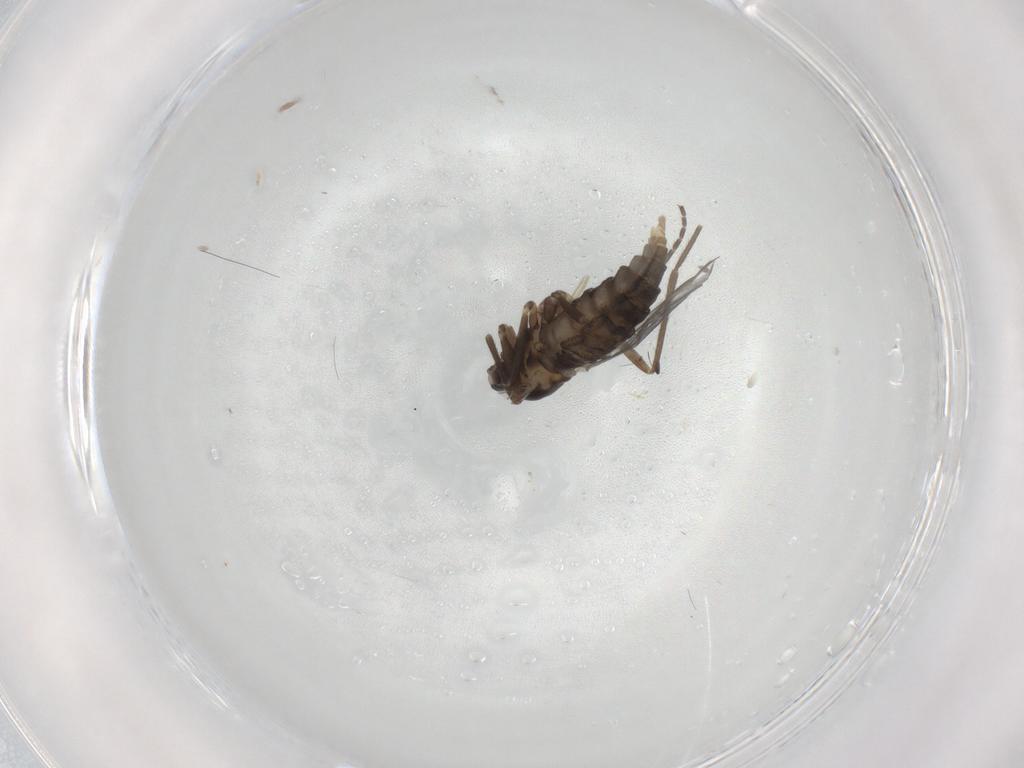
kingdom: Animalia
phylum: Arthropoda
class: Insecta
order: Diptera
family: Cecidomyiidae
